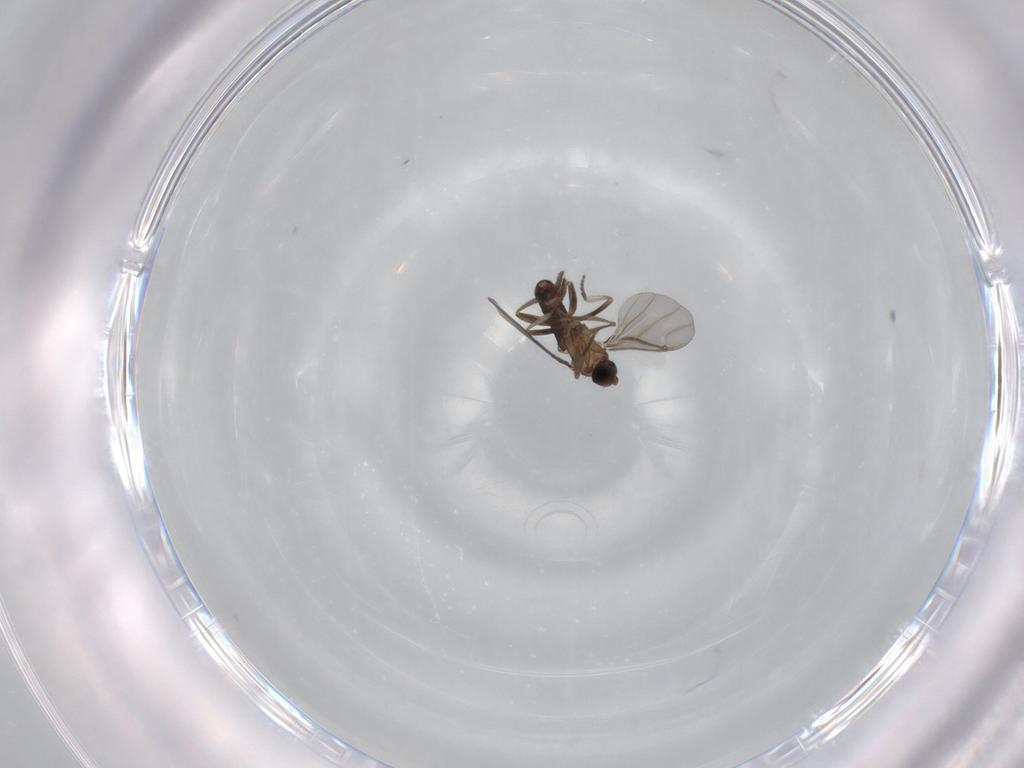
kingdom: Animalia
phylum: Arthropoda
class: Insecta
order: Diptera
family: Phoridae
